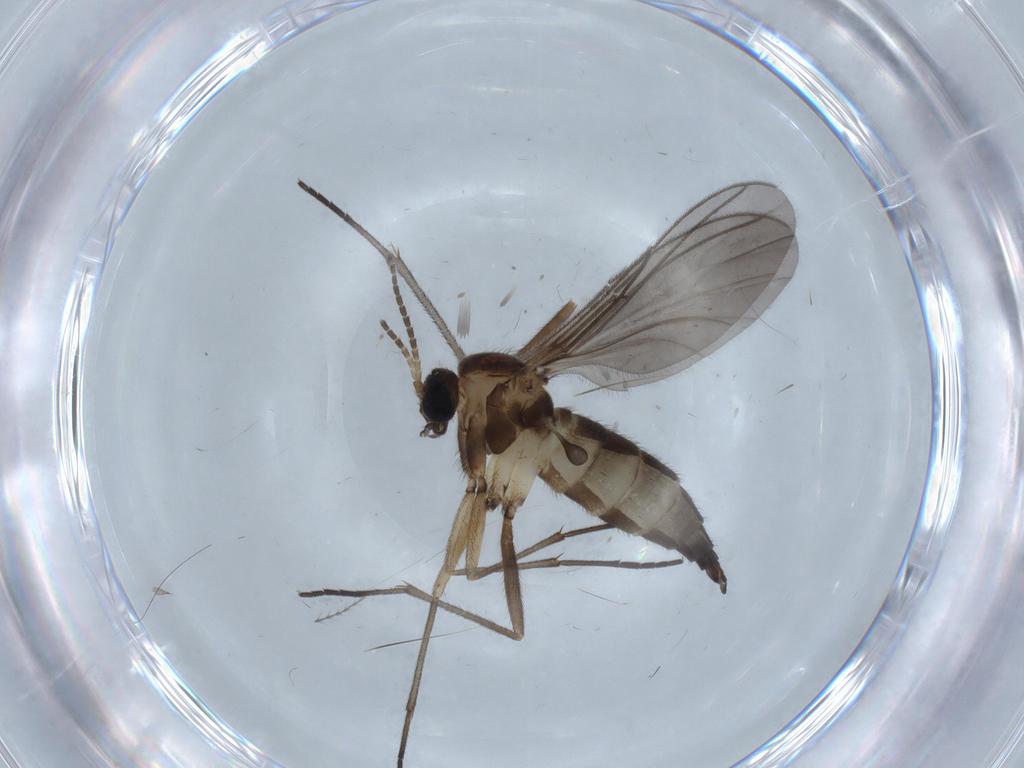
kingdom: Animalia
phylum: Arthropoda
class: Insecta
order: Diptera
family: Sciaridae
